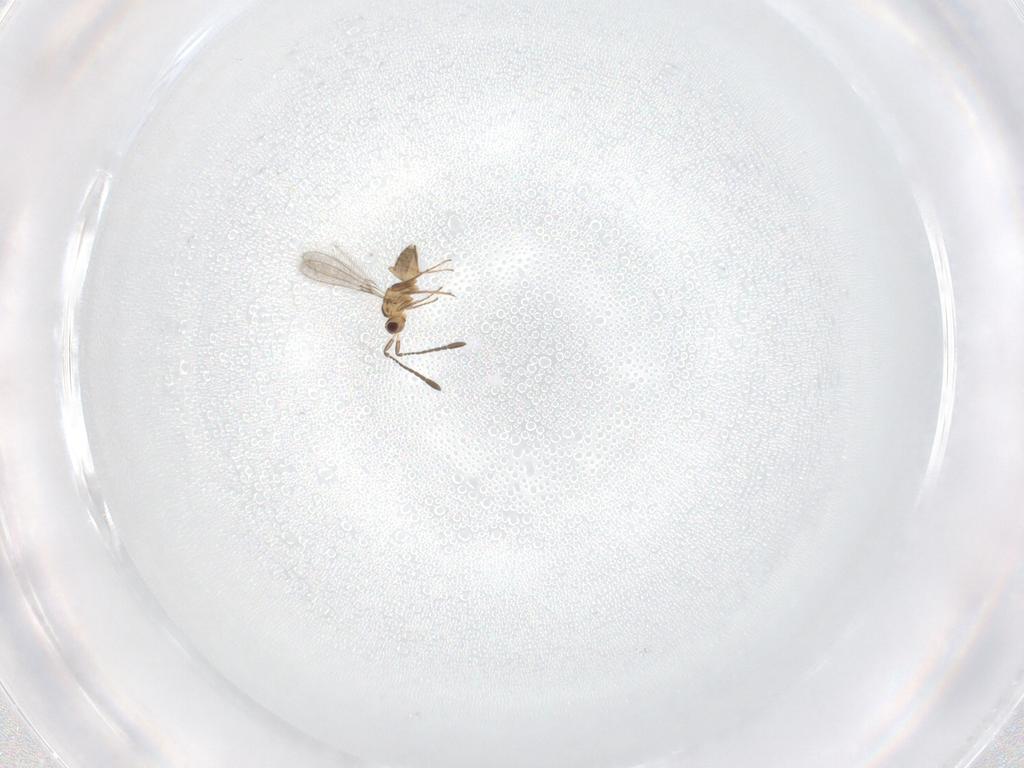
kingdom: Animalia
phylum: Arthropoda
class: Insecta
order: Hymenoptera
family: Mymaridae
